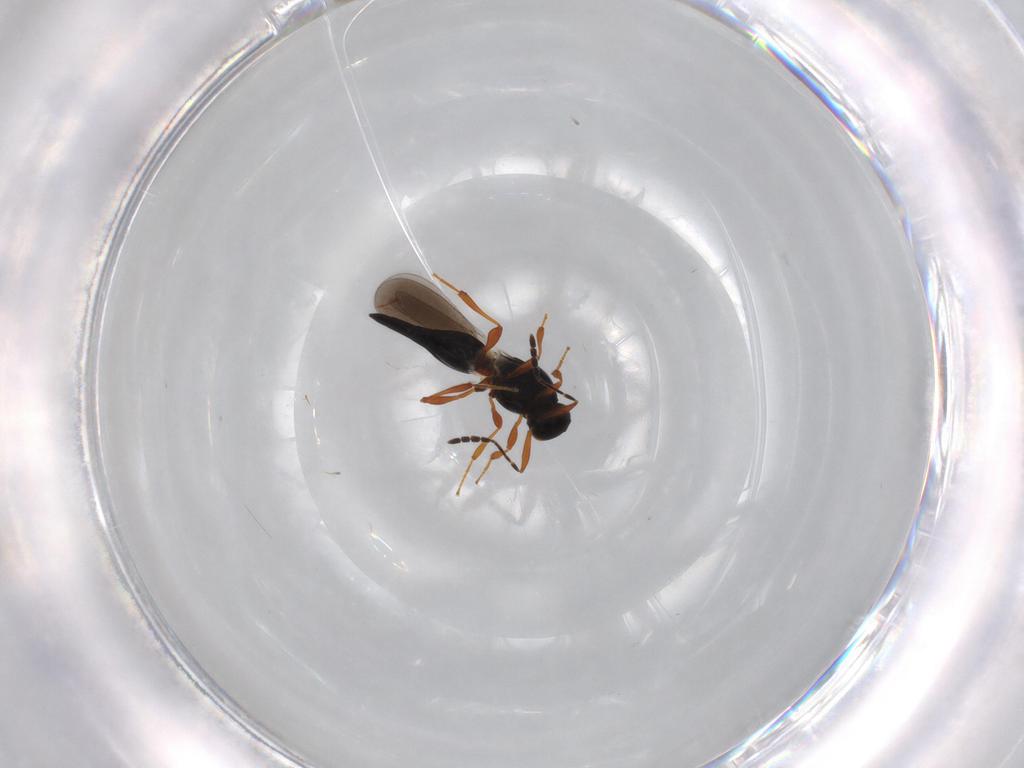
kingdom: Animalia
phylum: Arthropoda
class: Insecta
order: Hymenoptera
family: Platygastridae
